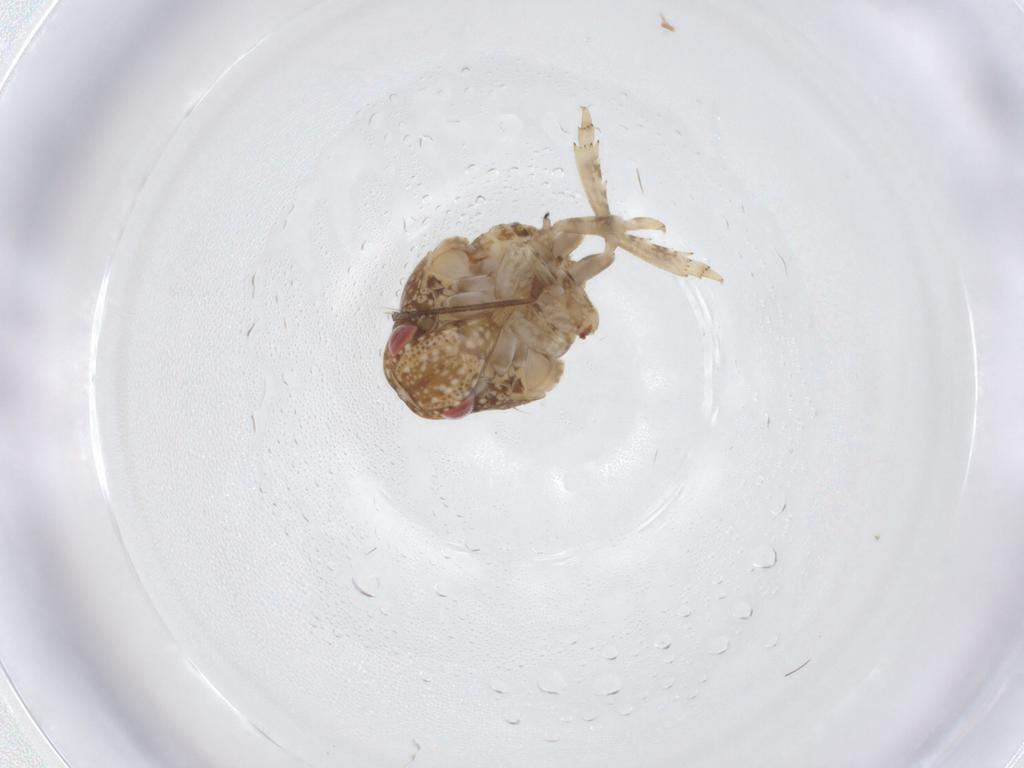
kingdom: Animalia
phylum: Arthropoda
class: Insecta
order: Hemiptera
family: Acanaloniidae
